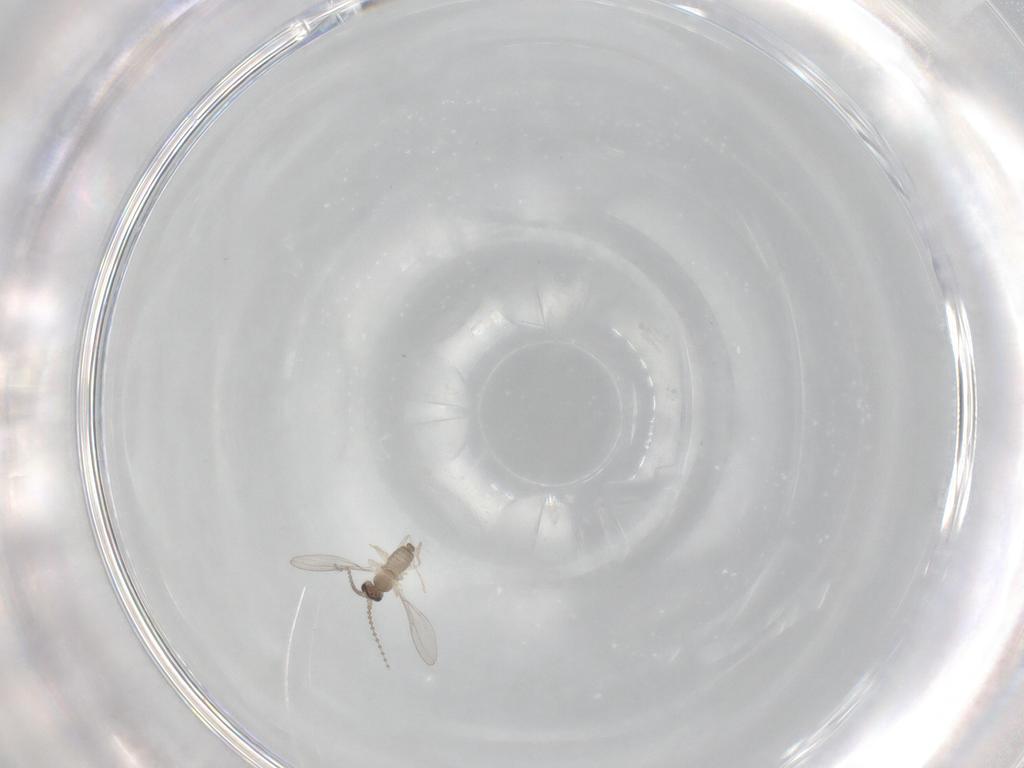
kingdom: Animalia
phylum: Arthropoda
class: Insecta
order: Diptera
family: Cecidomyiidae
